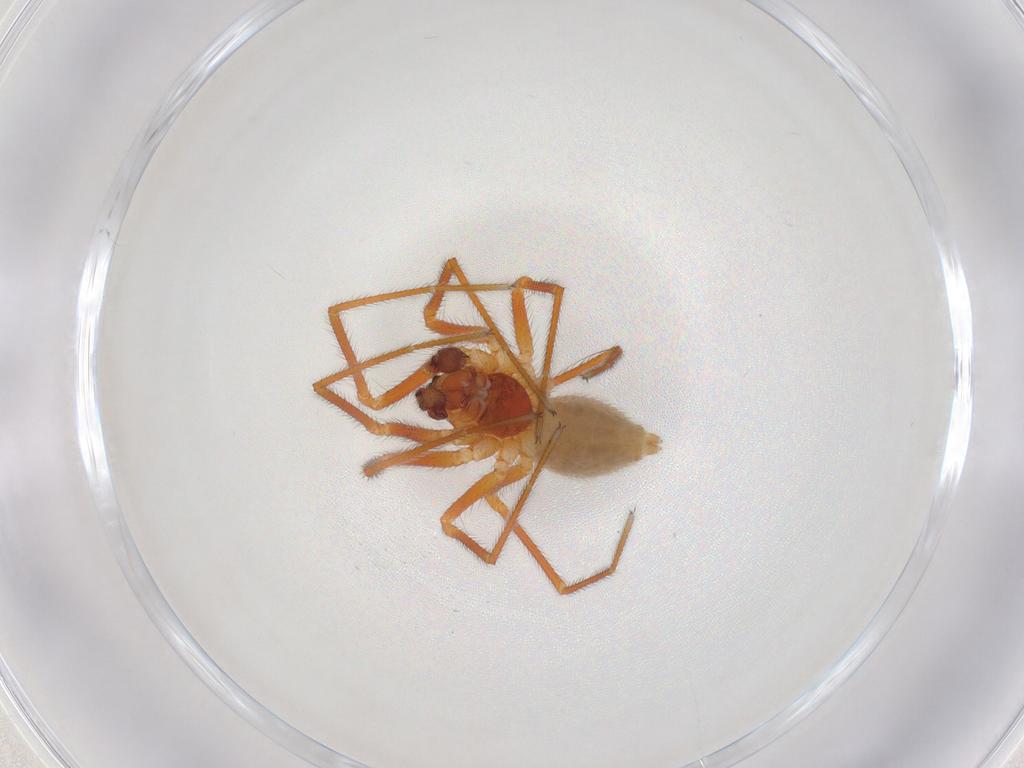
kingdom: Animalia
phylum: Arthropoda
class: Arachnida
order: Araneae
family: Linyphiidae
